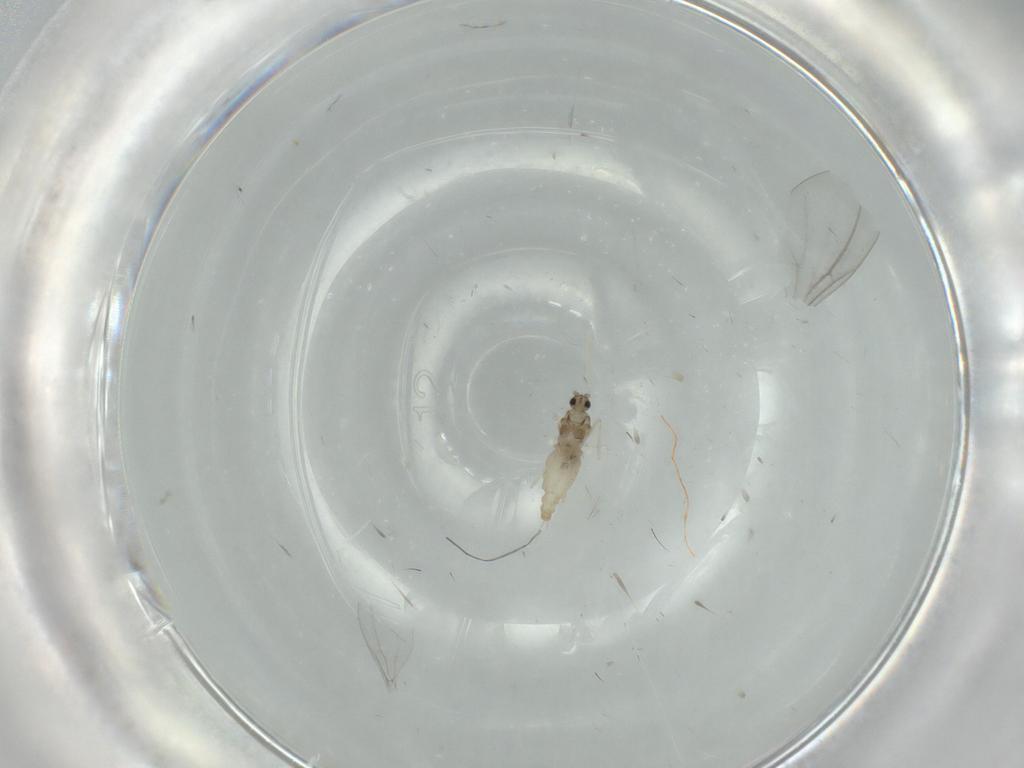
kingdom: Animalia
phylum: Arthropoda
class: Insecta
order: Diptera
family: Cecidomyiidae
